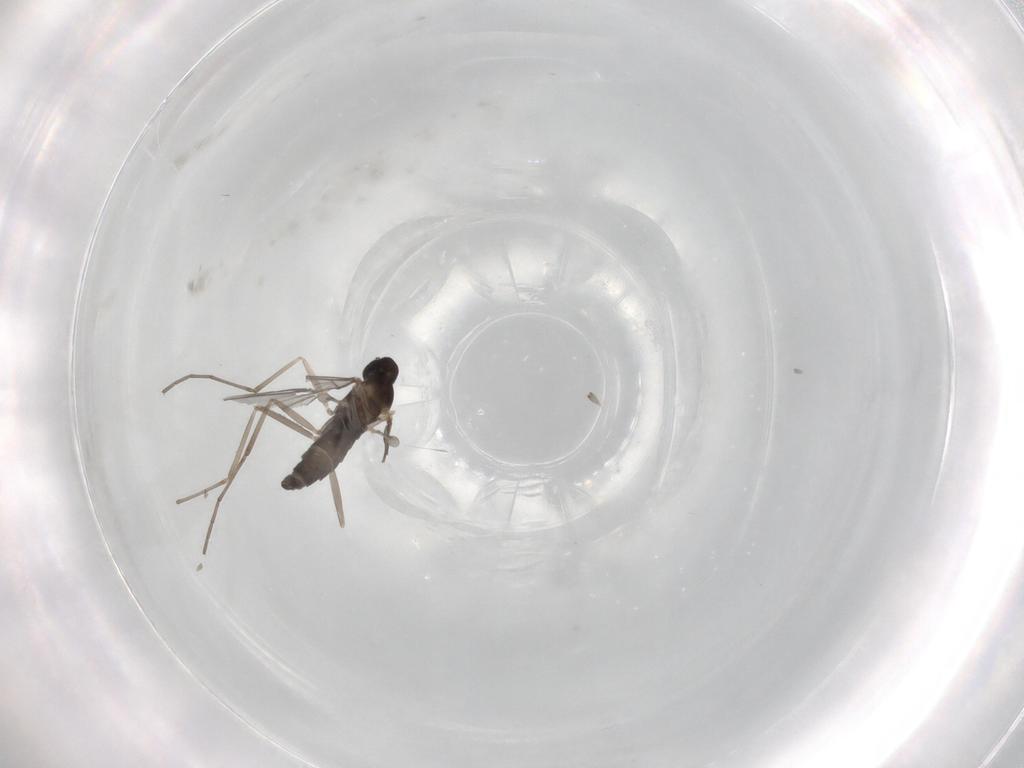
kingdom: Animalia
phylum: Arthropoda
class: Insecta
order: Diptera
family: Cecidomyiidae
